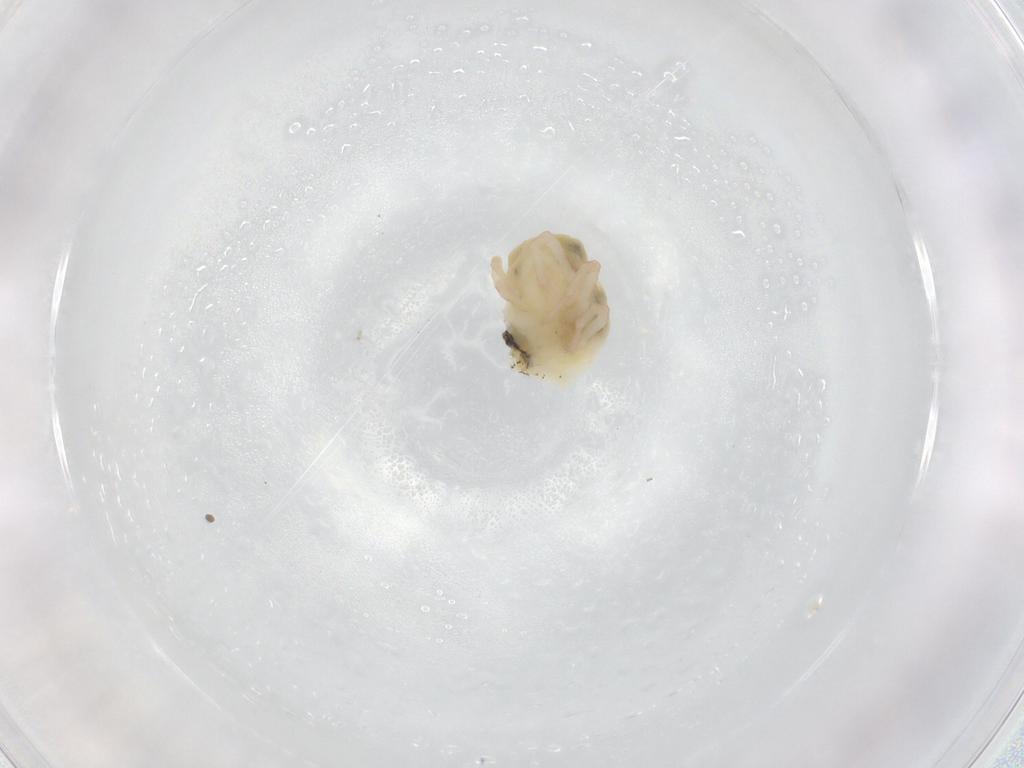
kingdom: Animalia
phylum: Arthropoda
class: Arachnida
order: Trombidiformes
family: Bdellidae
